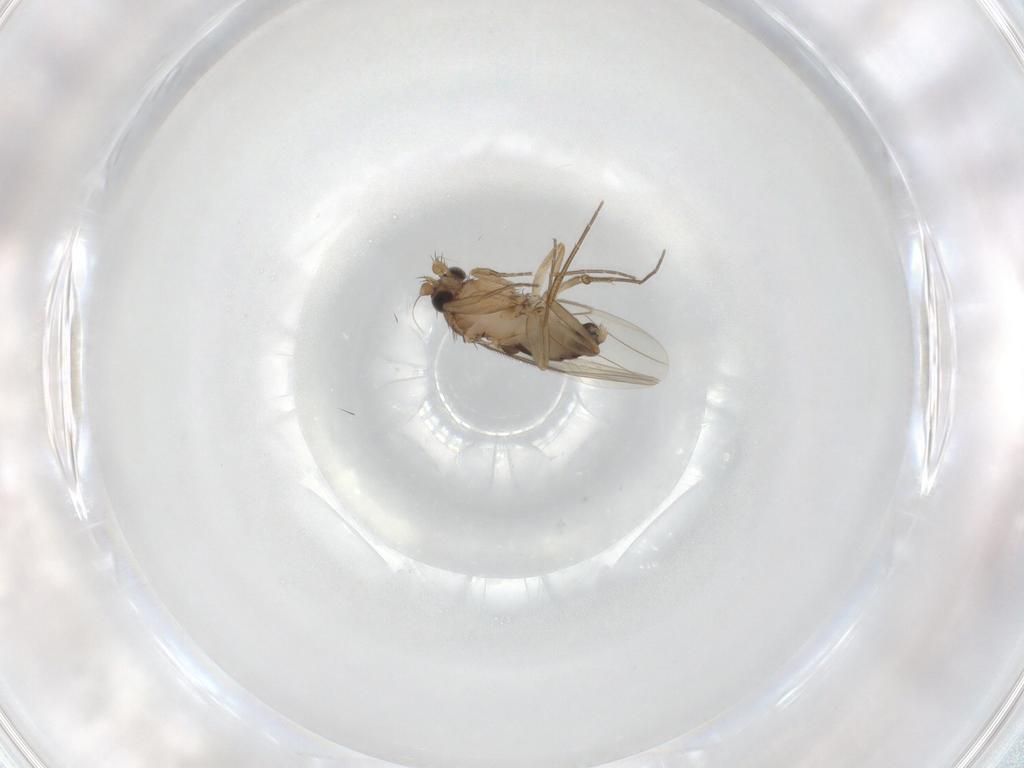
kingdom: Animalia
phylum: Arthropoda
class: Insecta
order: Diptera
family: Phoridae
